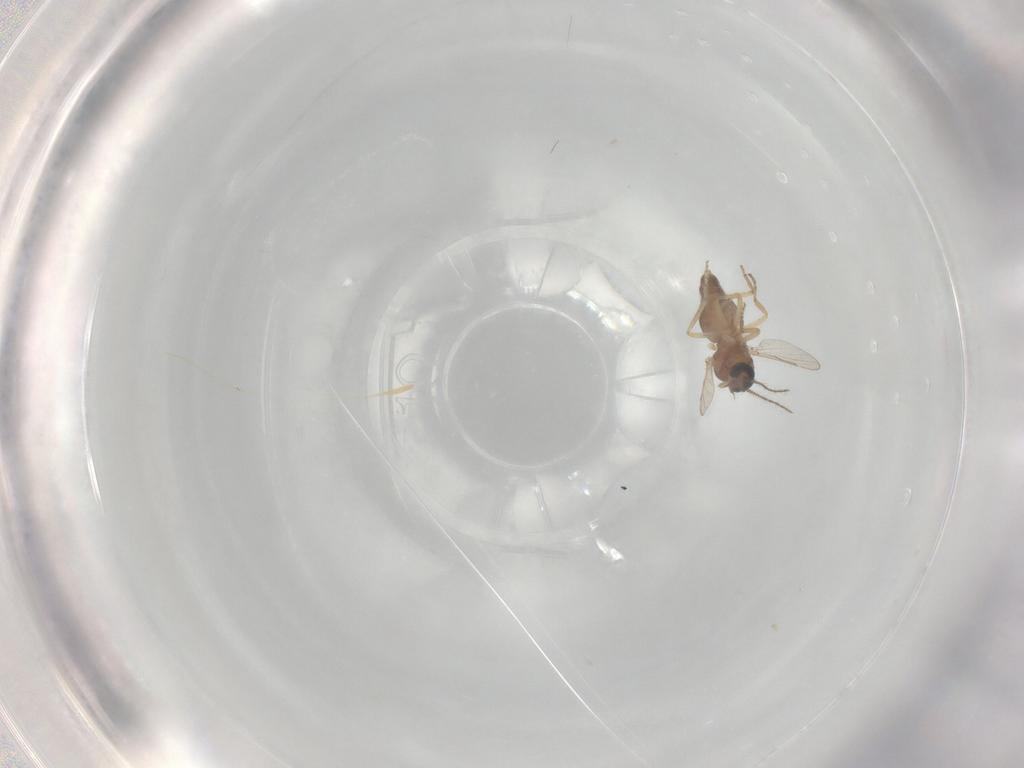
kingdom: Animalia
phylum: Arthropoda
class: Insecta
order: Diptera
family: Ceratopogonidae
